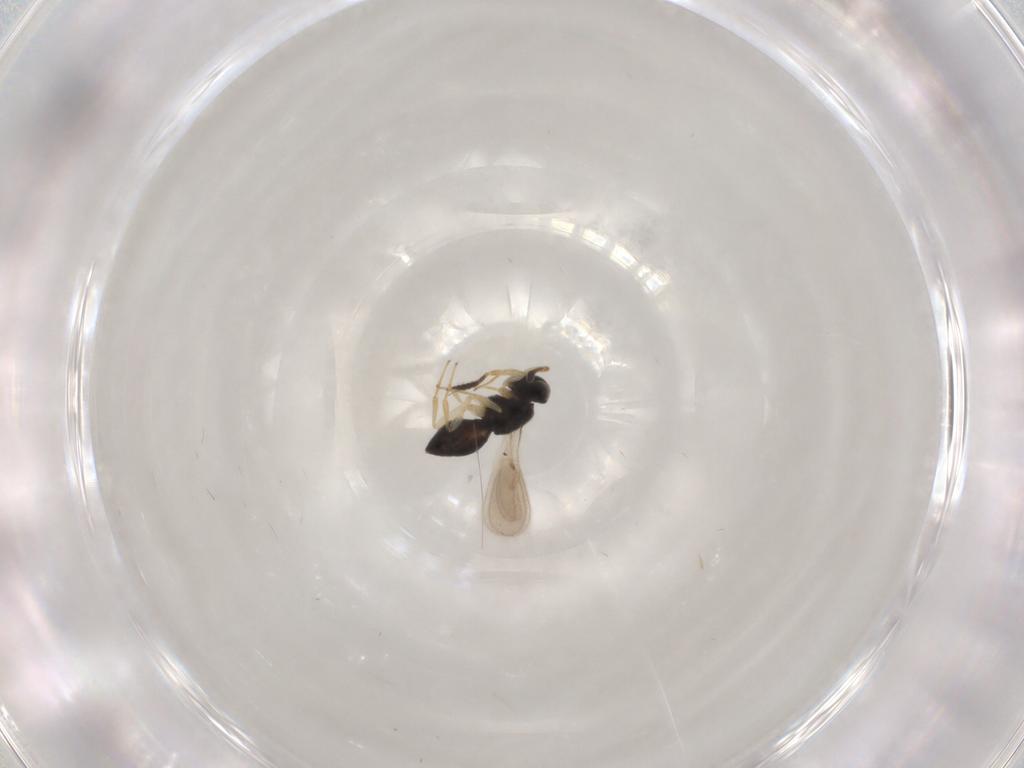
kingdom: Animalia
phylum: Arthropoda
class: Insecta
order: Hymenoptera
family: Scelionidae
